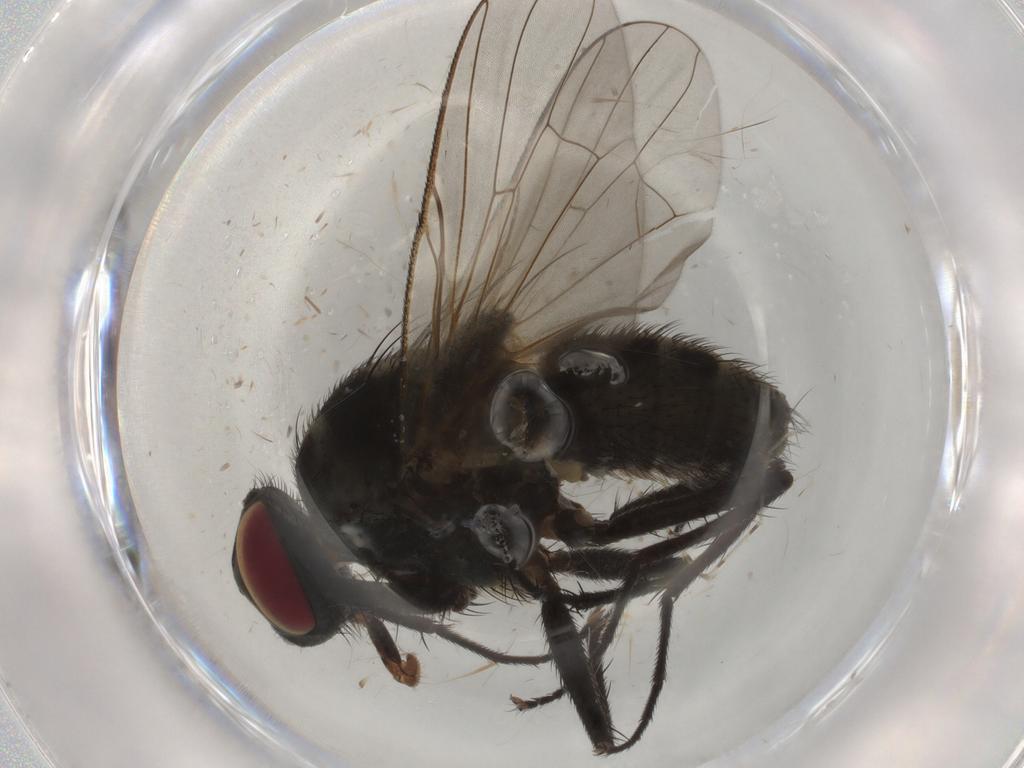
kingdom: Animalia
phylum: Arthropoda
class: Insecta
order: Diptera
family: Muscidae
